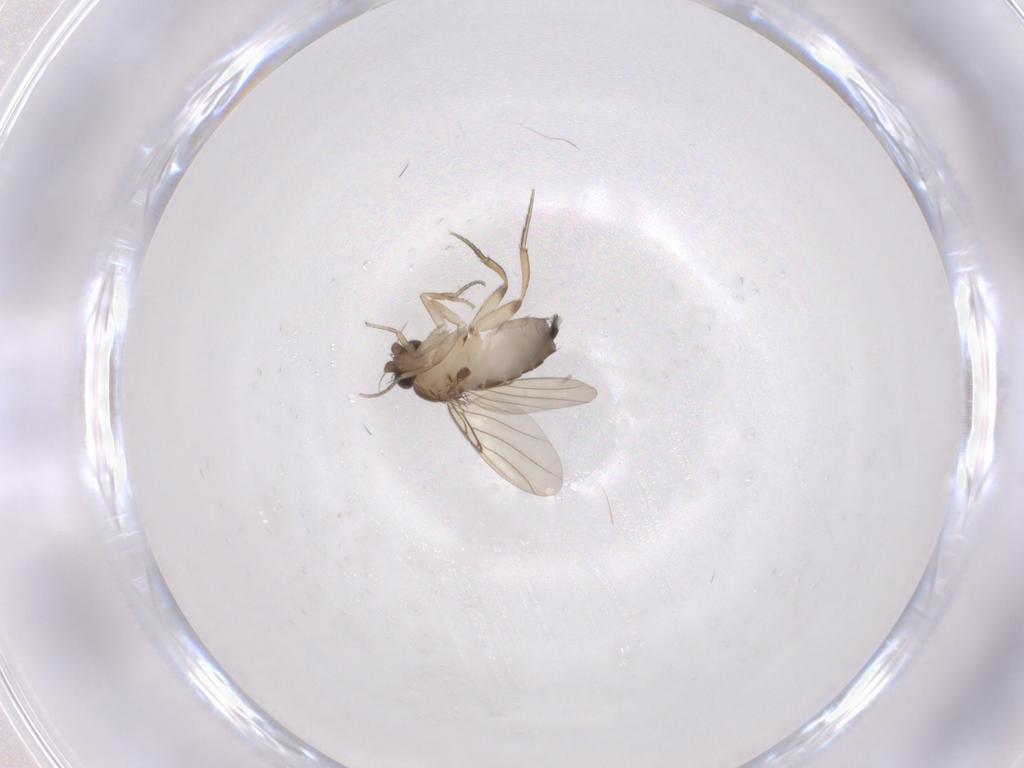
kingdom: Animalia
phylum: Arthropoda
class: Insecta
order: Diptera
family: Phoridae
